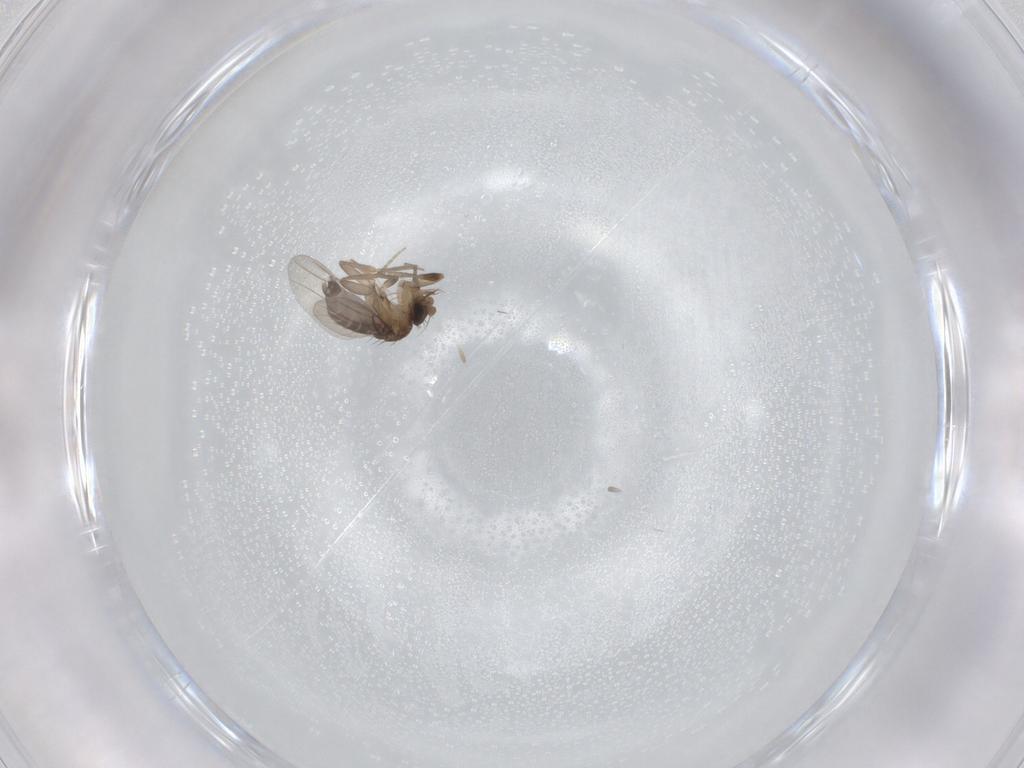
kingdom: Animalia
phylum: Arthropoda
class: Insecta
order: Diptera
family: Phoridae
